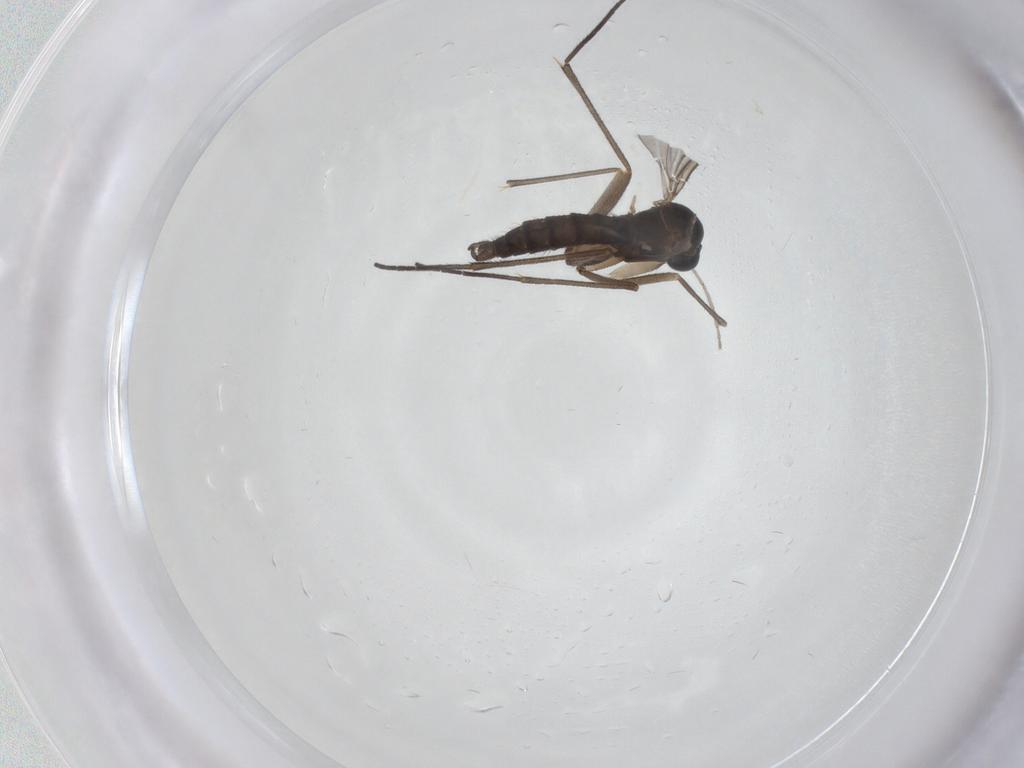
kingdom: Animalia
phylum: Arthropoda
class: Insecta
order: Diptera
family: Sciaridae
